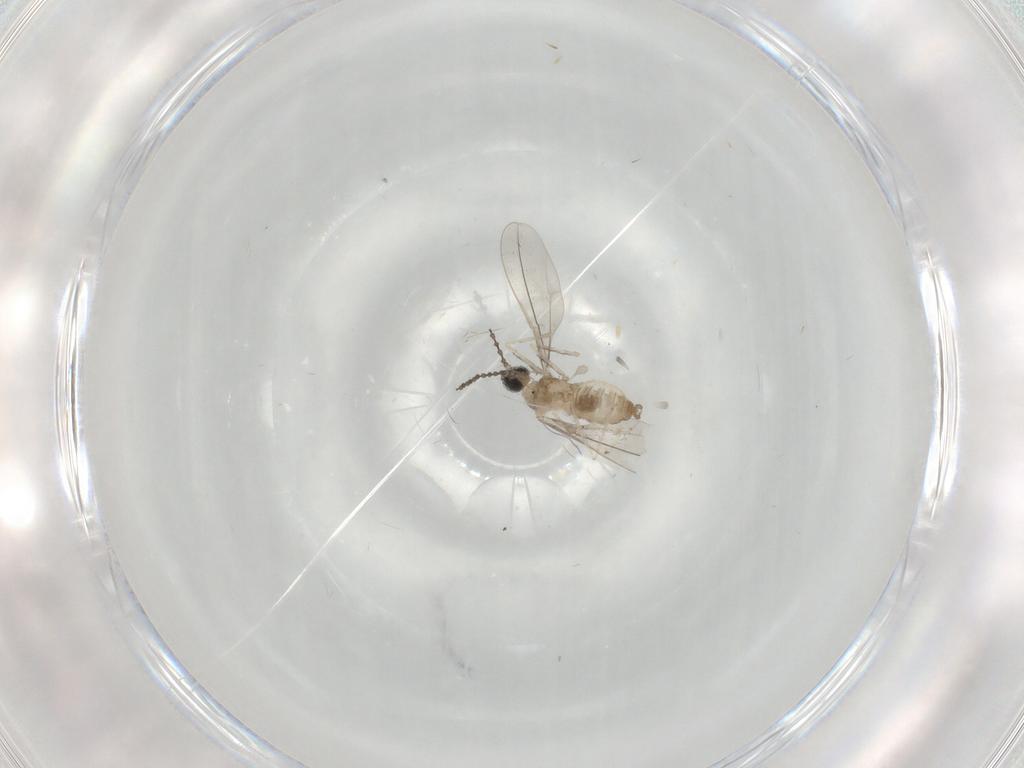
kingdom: Animalia
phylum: Arthropoda
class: Insecta
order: Diptera
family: Cecidomyiidae
